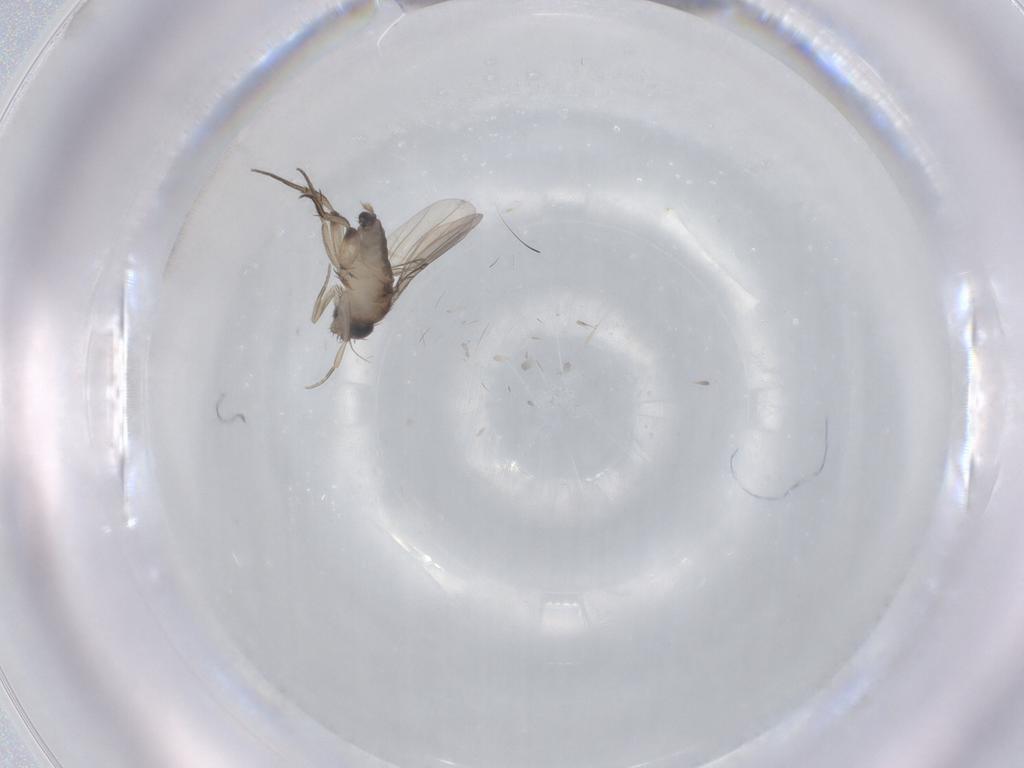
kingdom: Animalia
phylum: Arthropoda
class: Insecta
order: Diptera
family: Phoridae
